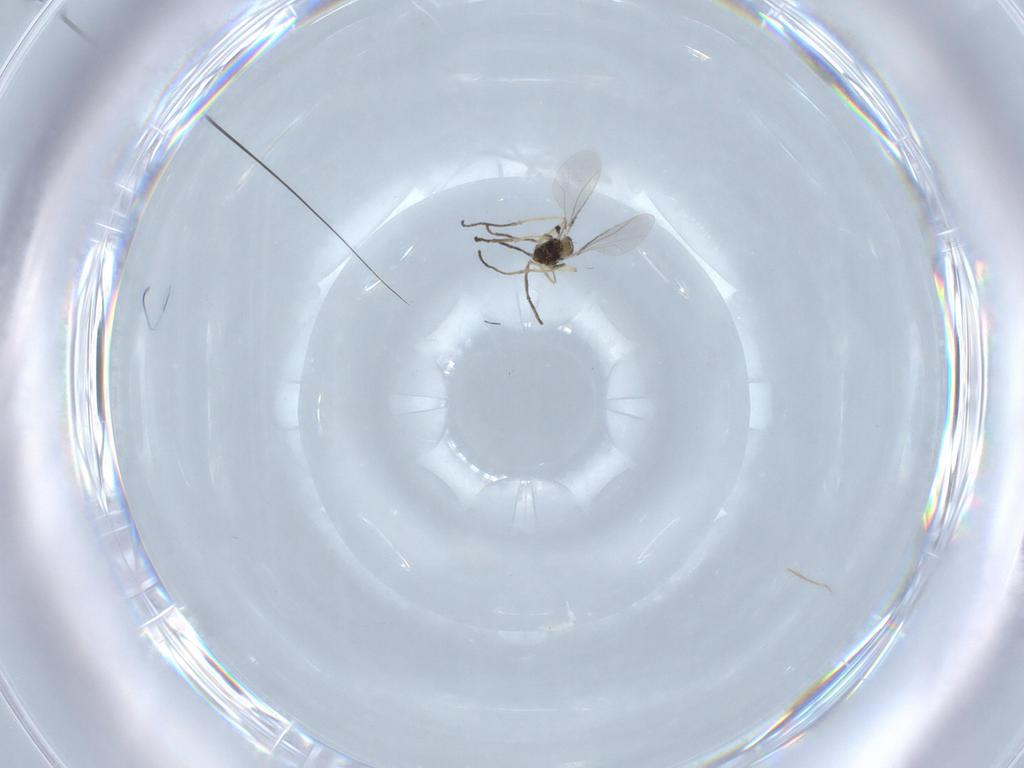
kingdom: Animalia
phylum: Arthropoda
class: Insecta
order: Diptera
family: Cecidomyiidae
